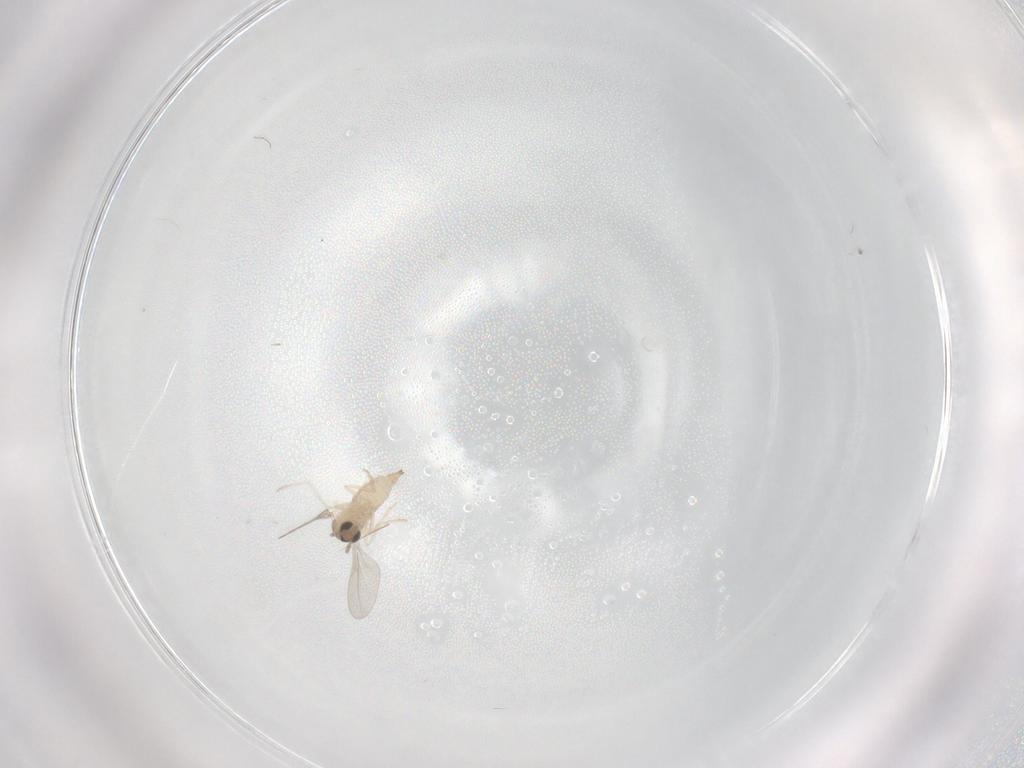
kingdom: Animalia
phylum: Arthropoda
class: Insecta
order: Diptera
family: Cecidomyiidae
